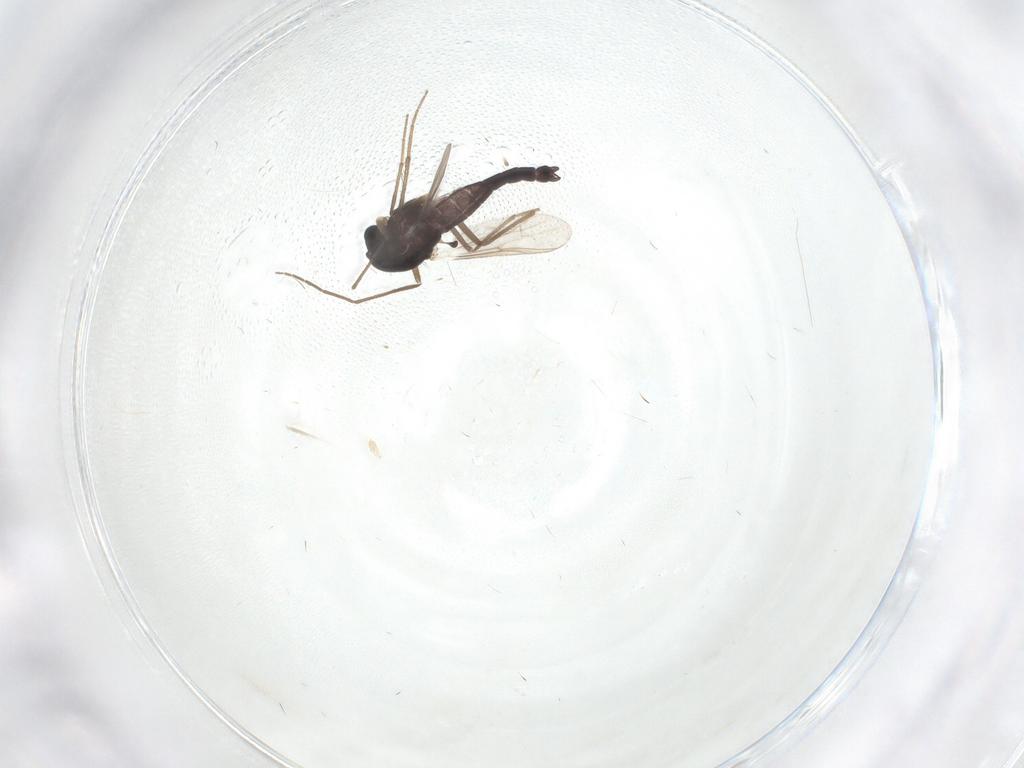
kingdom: Animalia
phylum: Arthropoda
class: Insecta
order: Diptera
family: Chironomidae
